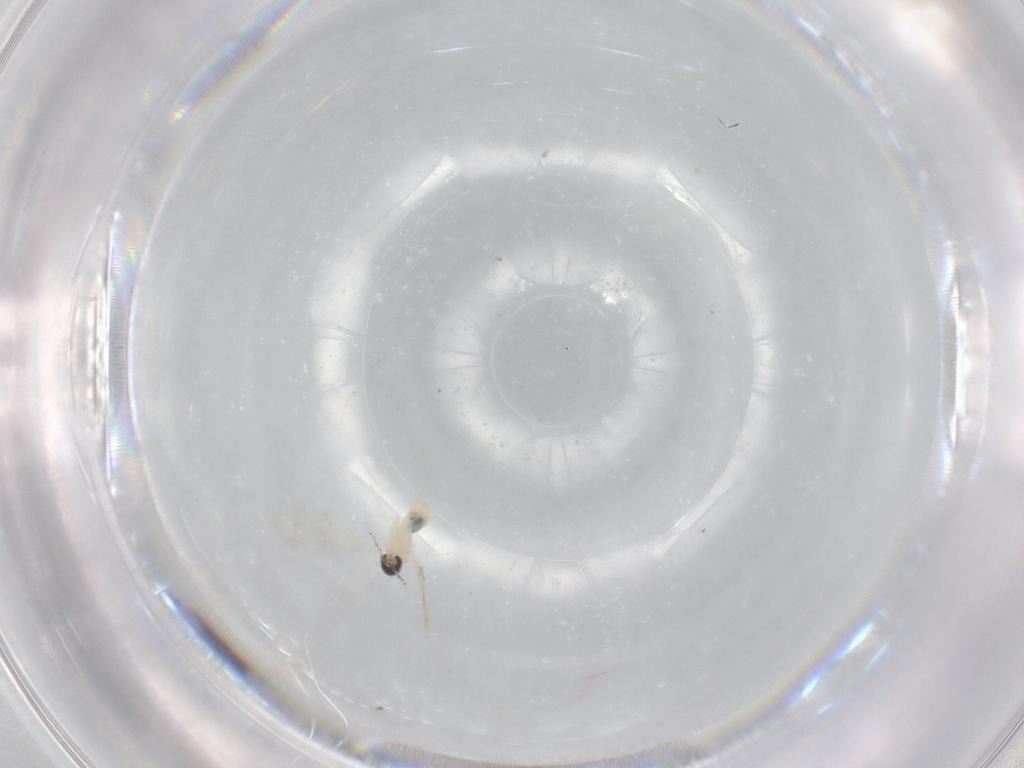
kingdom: Animalia
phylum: Arthropoda
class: Insecta
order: Diptera
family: Cecidomyiidae
